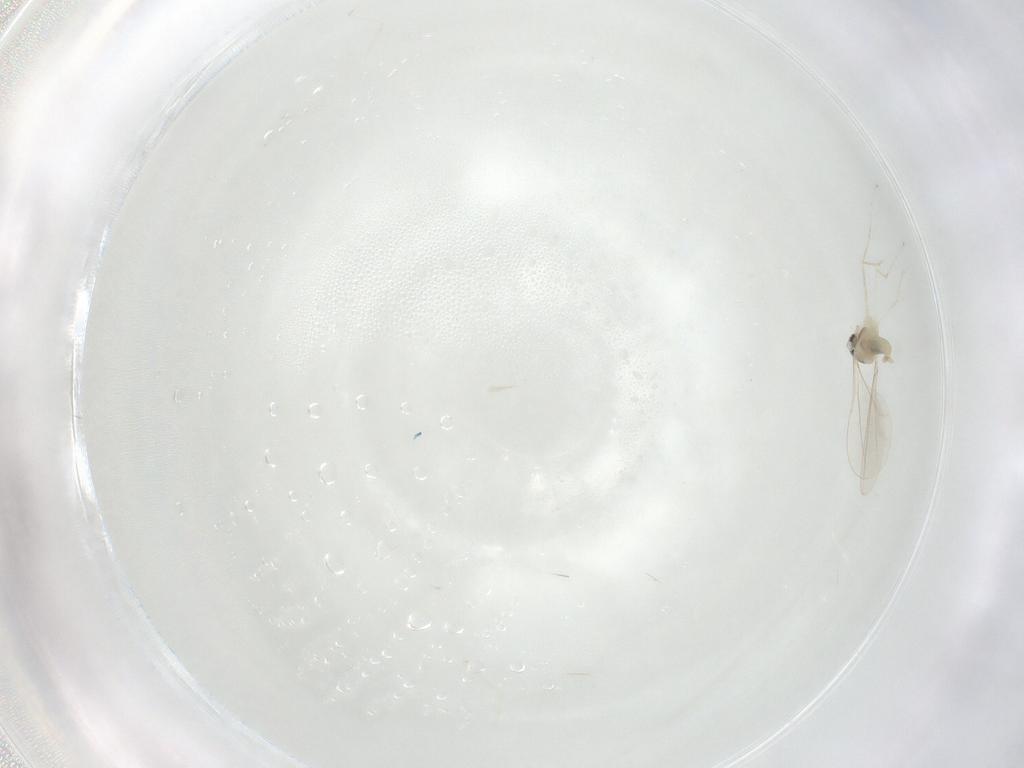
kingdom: Animalia
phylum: Arthropoda
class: Insecta
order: Diptera
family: Cecidomyiidae
